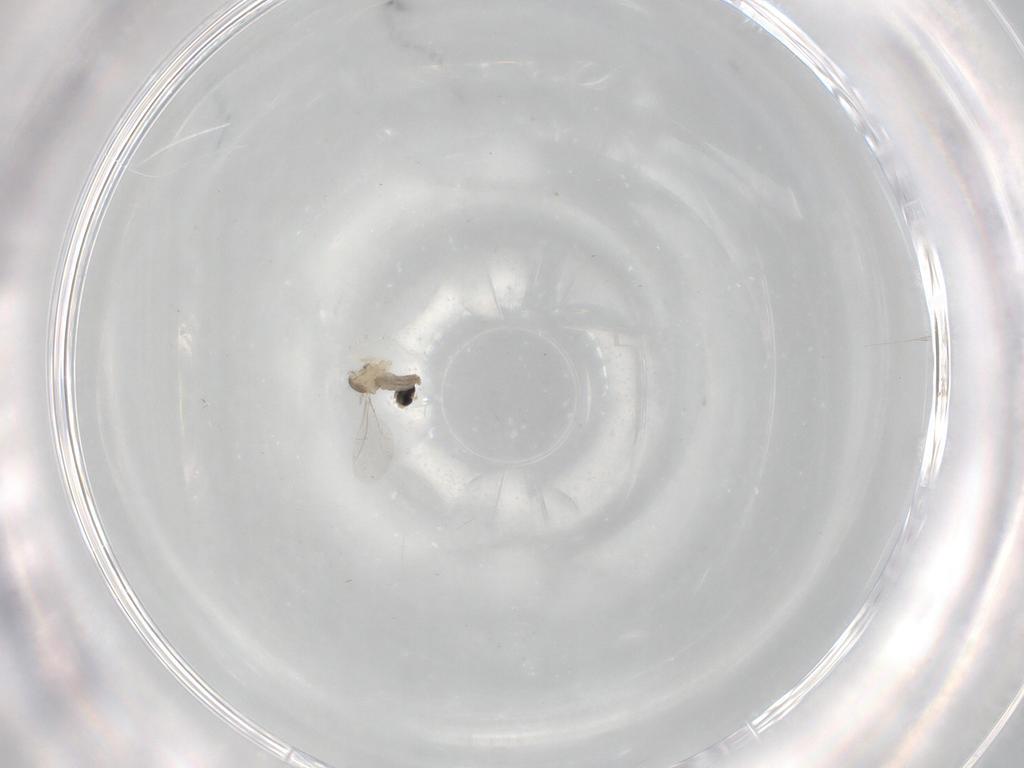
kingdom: Animalia
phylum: Arthropoda
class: Insecta
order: Diptera
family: Cecidomyiidae
